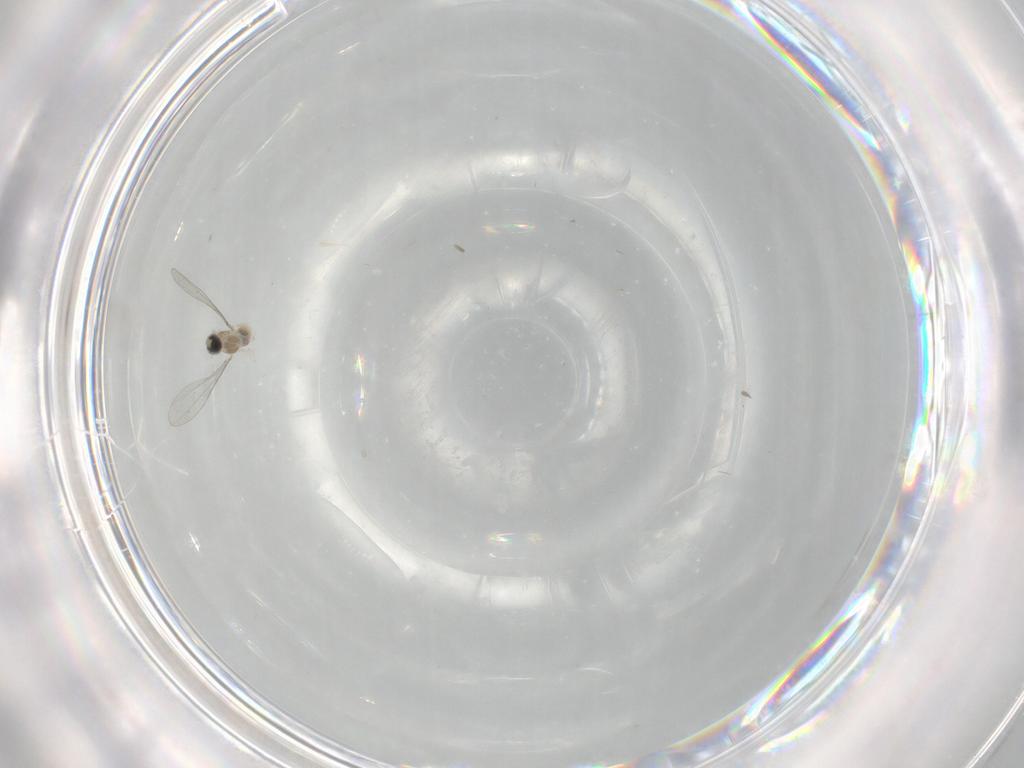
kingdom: Animalia
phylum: Arthropoda
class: Insecta
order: Diptera
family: Cecidomyiidae
